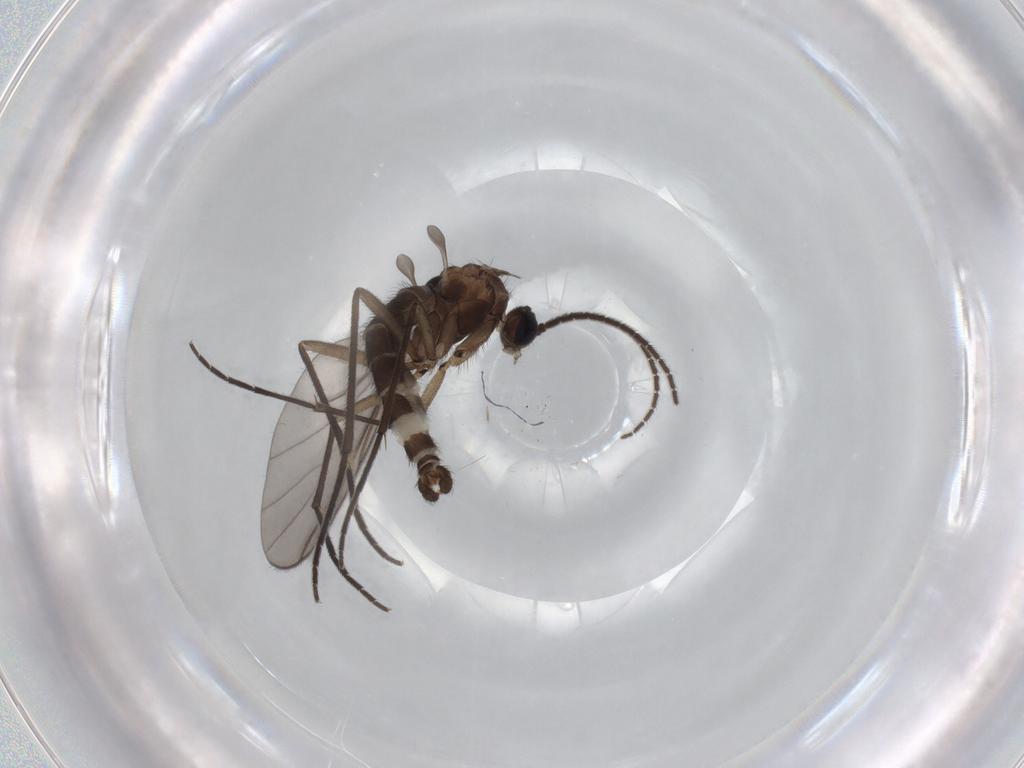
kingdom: Animalia
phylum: Arthropoda
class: Insecta
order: Diptera
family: Sciaridae
